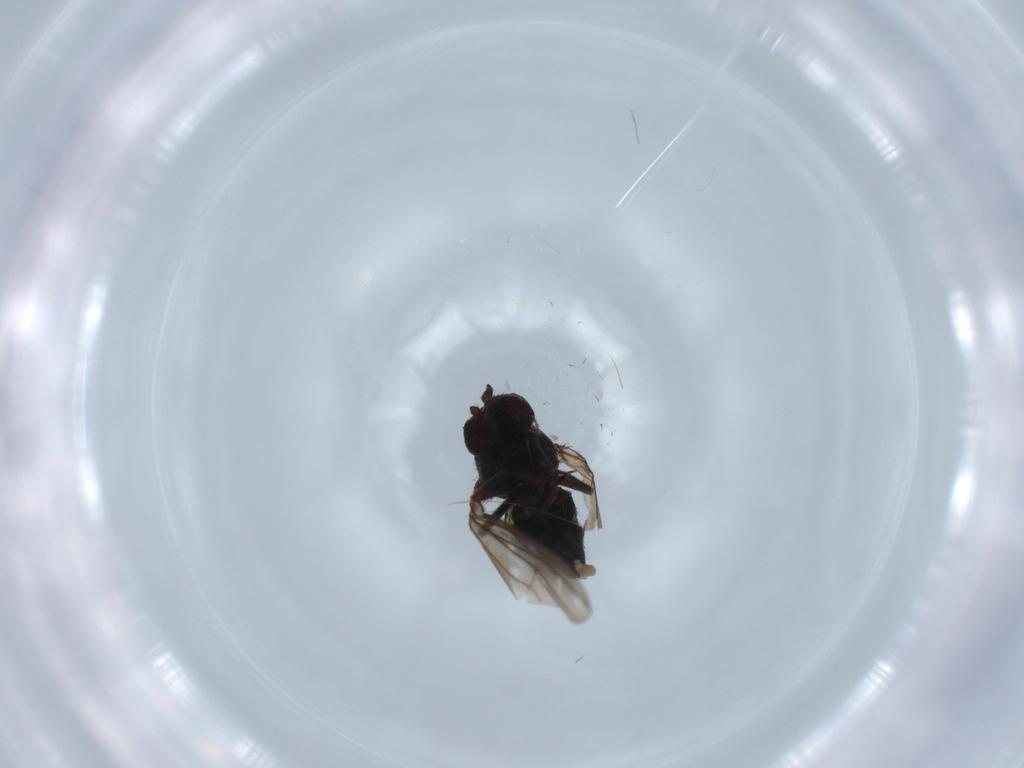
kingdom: Animalia
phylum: Arthropoda
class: Insecta
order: Diptera
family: Ephydridae
